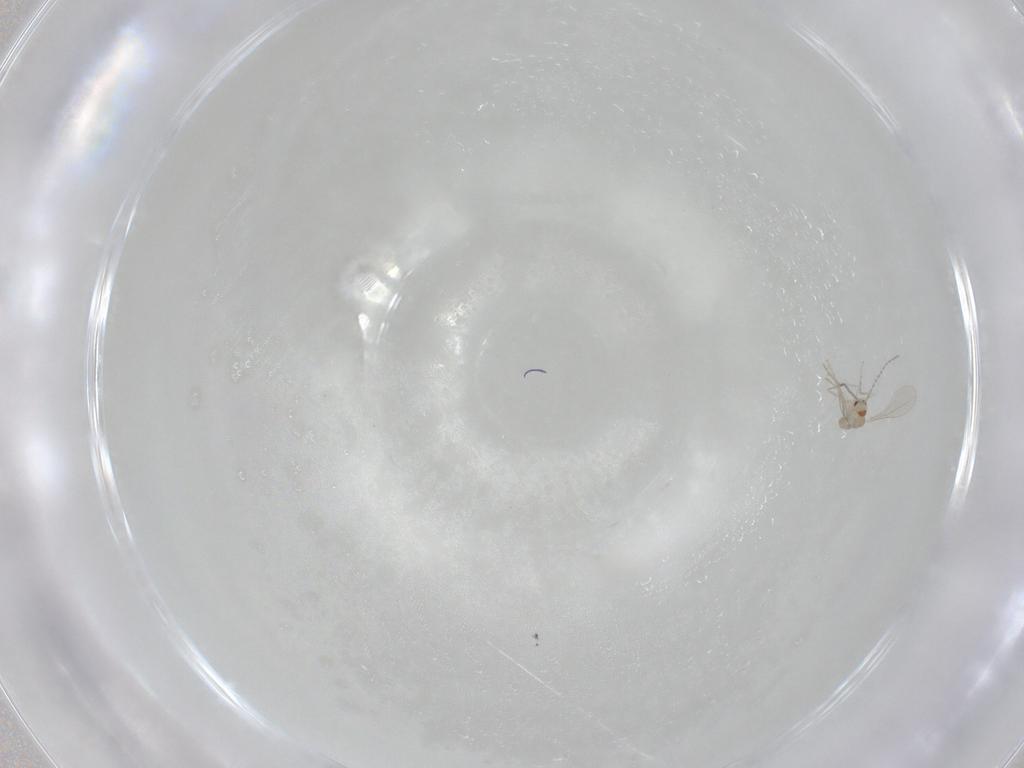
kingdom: Animalia
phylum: Arthropoda
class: Insecta
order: Diptera
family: Cecidomyiidae
